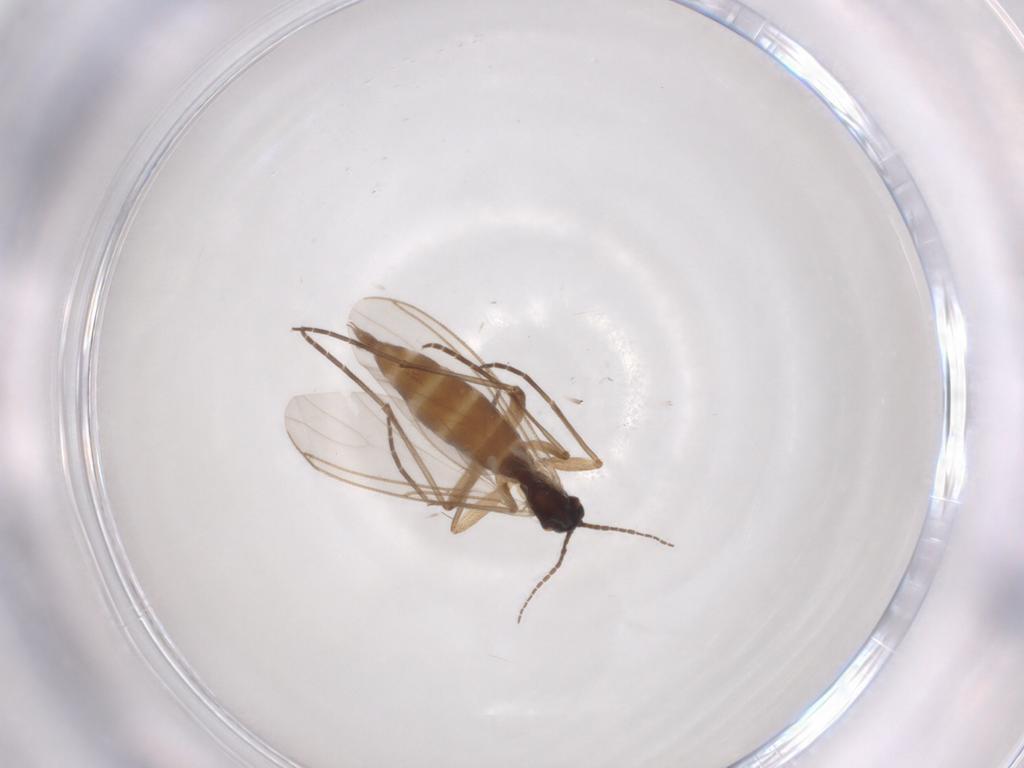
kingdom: Animalia
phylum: Arthropoda
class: Insecta
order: Diptera
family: Sciaridae
